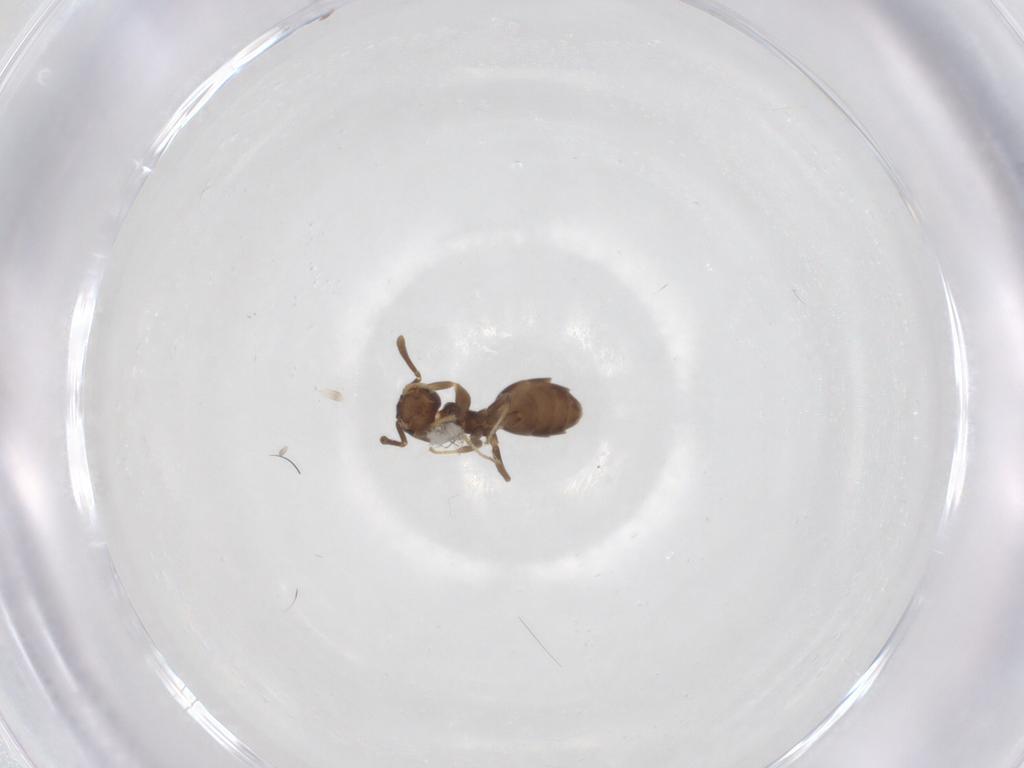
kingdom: Animalia
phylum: Arthropoda
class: Insecta
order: Hymenoptera
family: Formicidae
